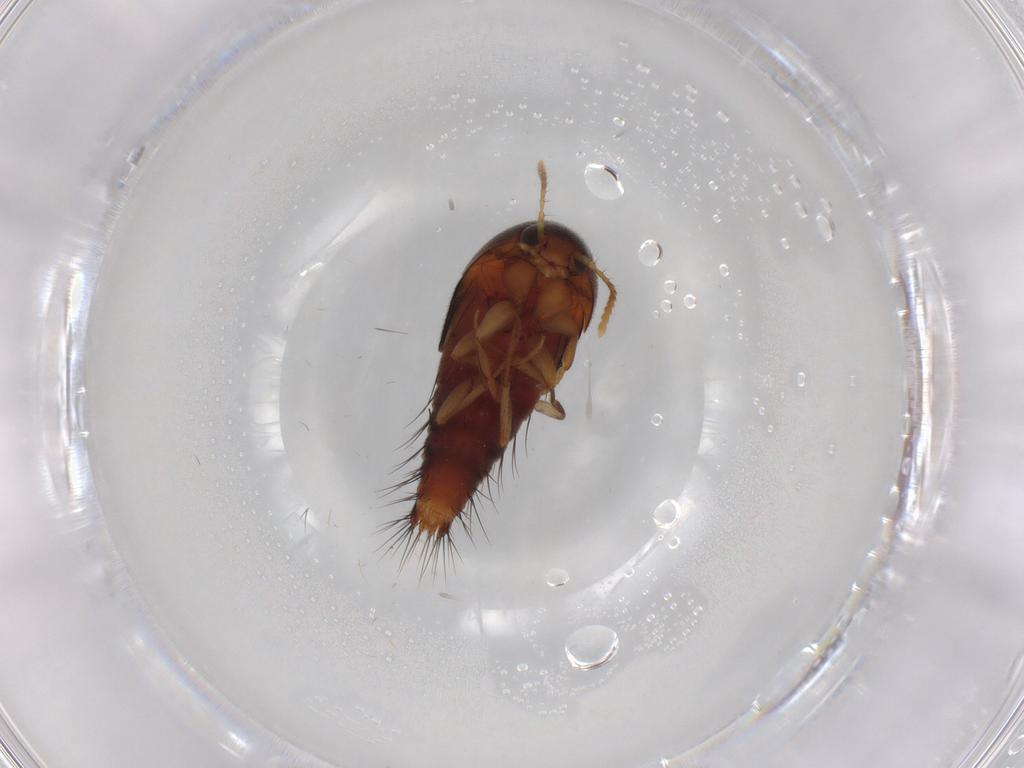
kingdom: Animalia
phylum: Arthropoda
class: Insecta
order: Coleoptera
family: Staphylinidae
